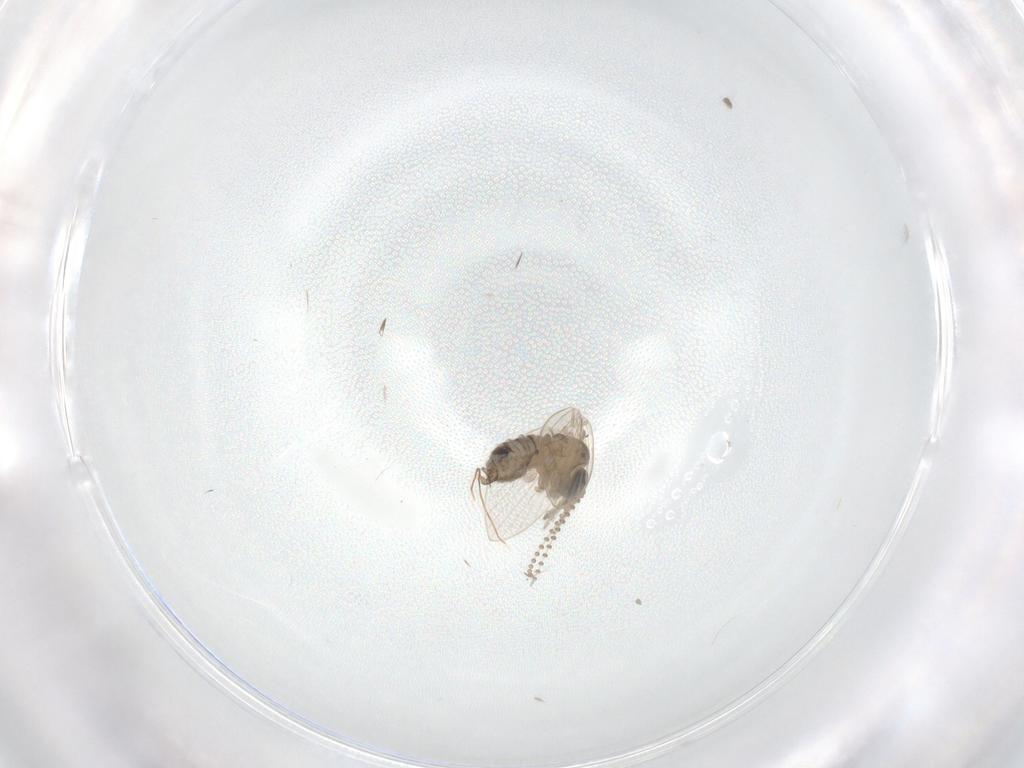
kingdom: Animalia
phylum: Arthropoda
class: Insecta
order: Diptera
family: Psychodidae
